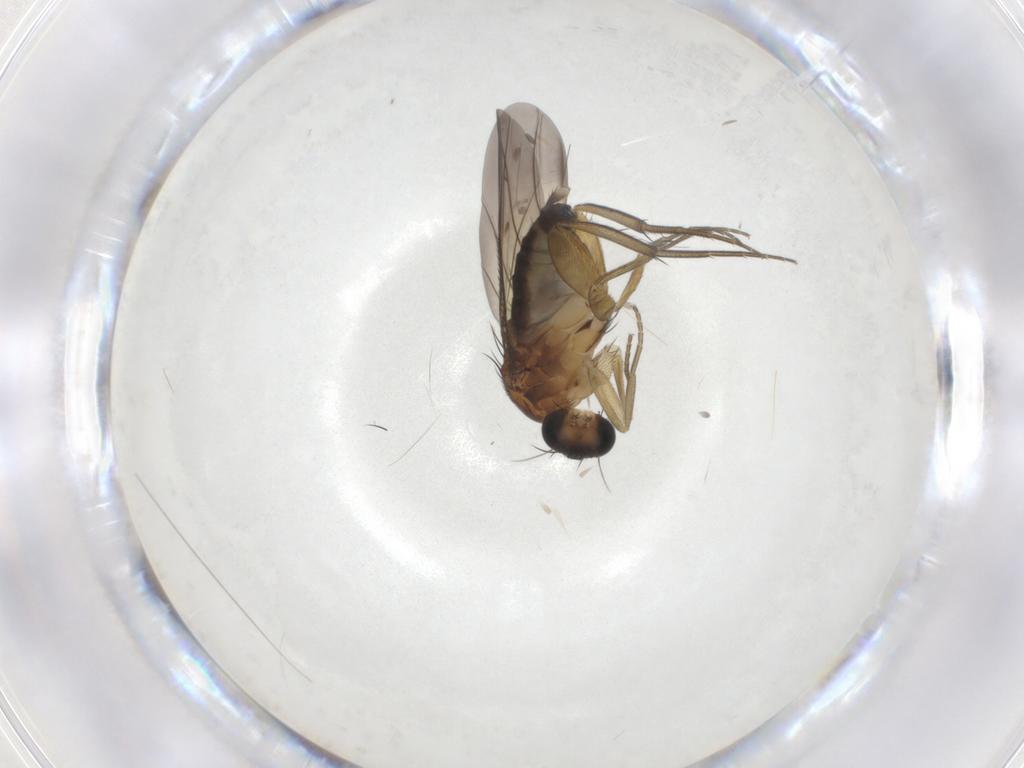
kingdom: Animalia
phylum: Arthropoda
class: Insecta
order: Diptera
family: Phoridae
